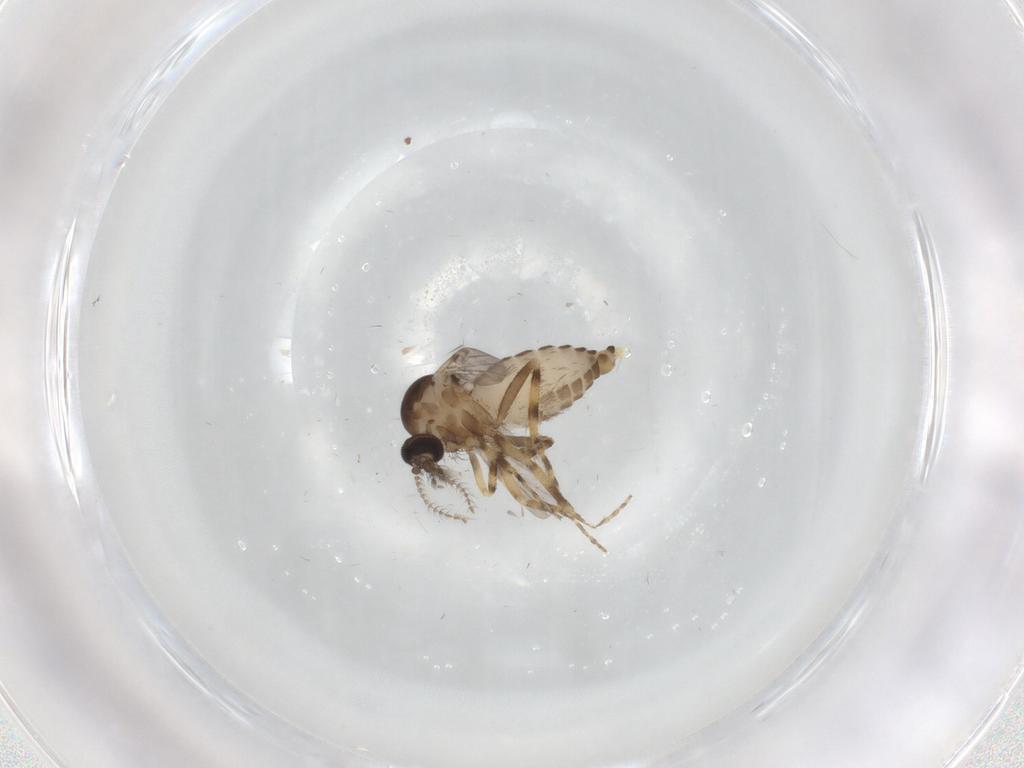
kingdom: Animalia
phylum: Arthropoda
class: Insecta
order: Diptera
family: Ceratopogonidae
